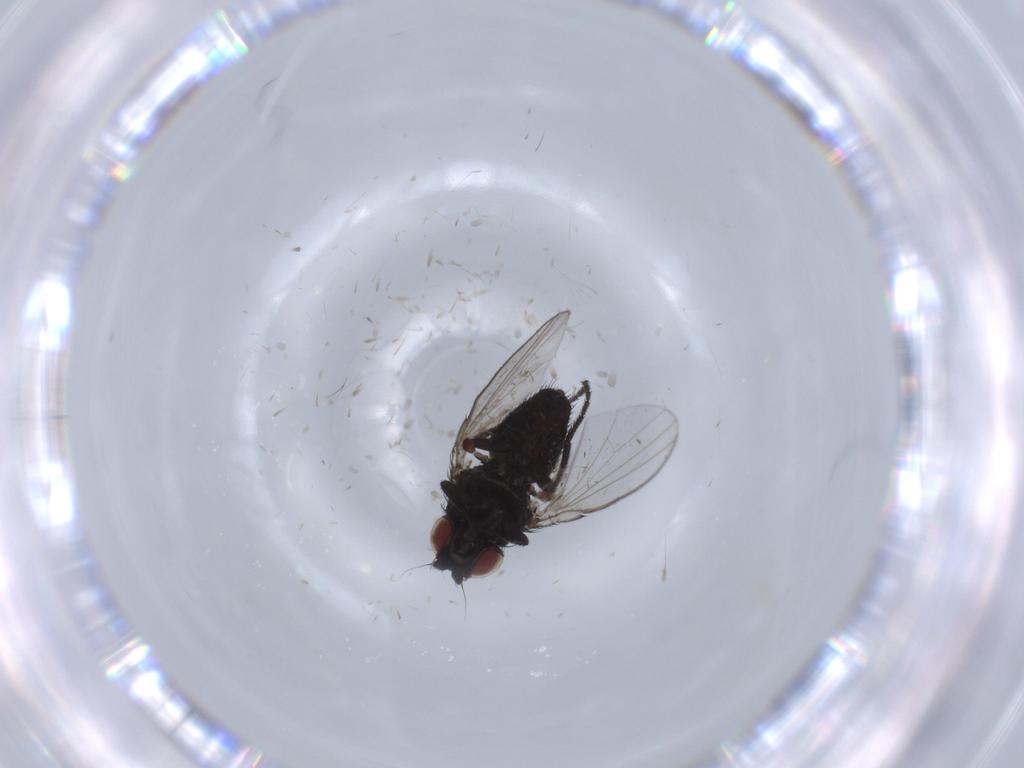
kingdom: Animalia
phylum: Arthropoda
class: Insecta
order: Diptera
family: Milichiidae
